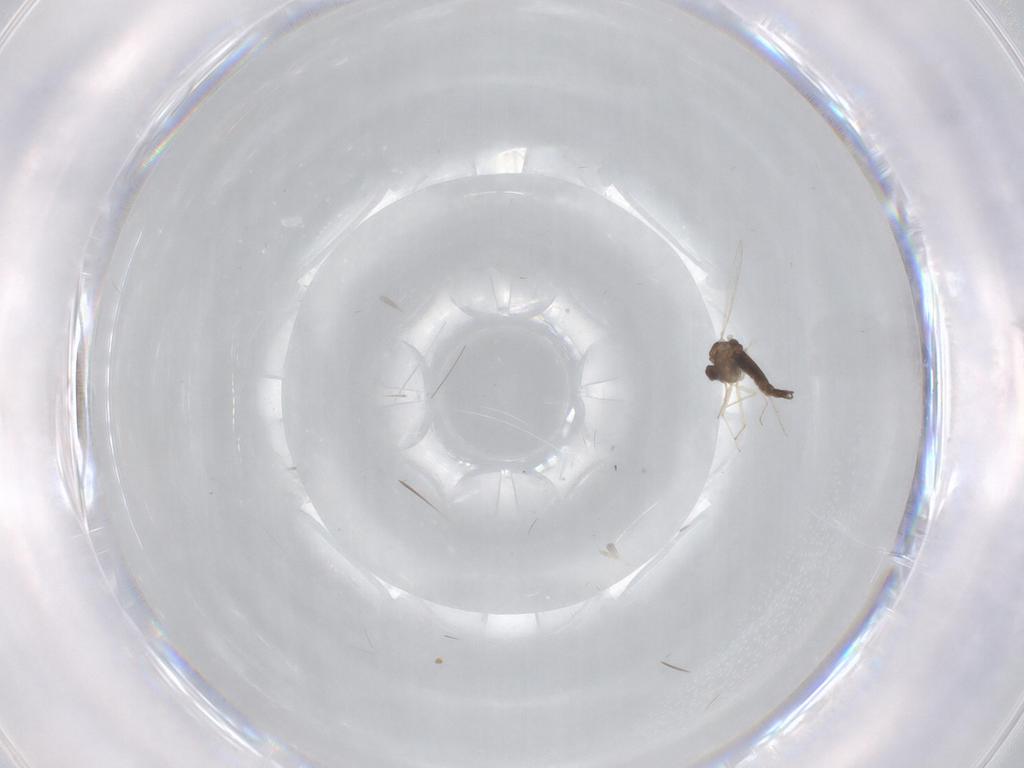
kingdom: Animalia
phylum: Arthropoda
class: Insecta
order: Diptera
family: Chironomidae
